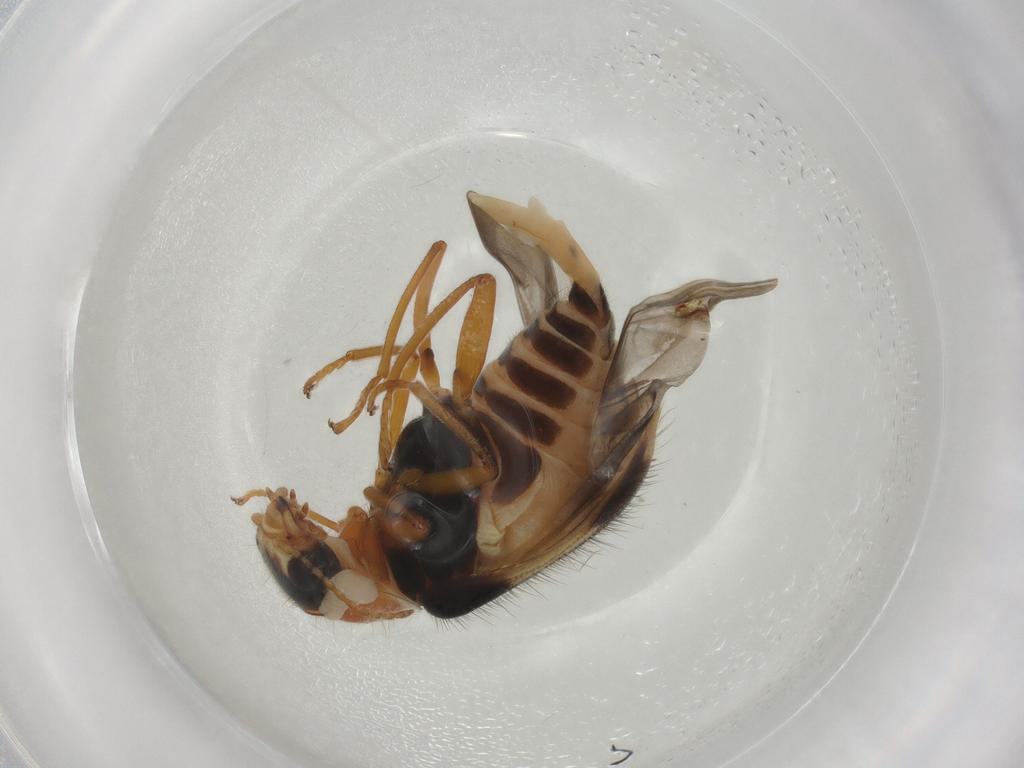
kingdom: Animalia
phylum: Arthropoda
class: Insecta
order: Coleoptera
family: Melyridae
